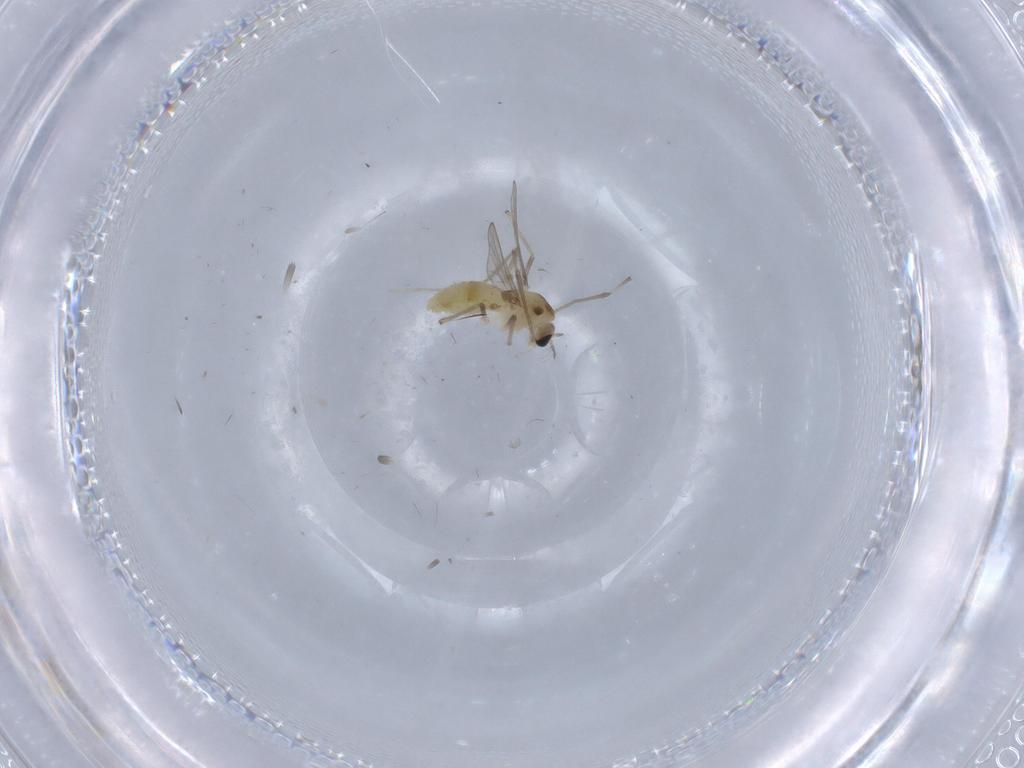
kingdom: Animalia
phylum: Arthropoda
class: Insecta
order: Diptera
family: Chironomidae
